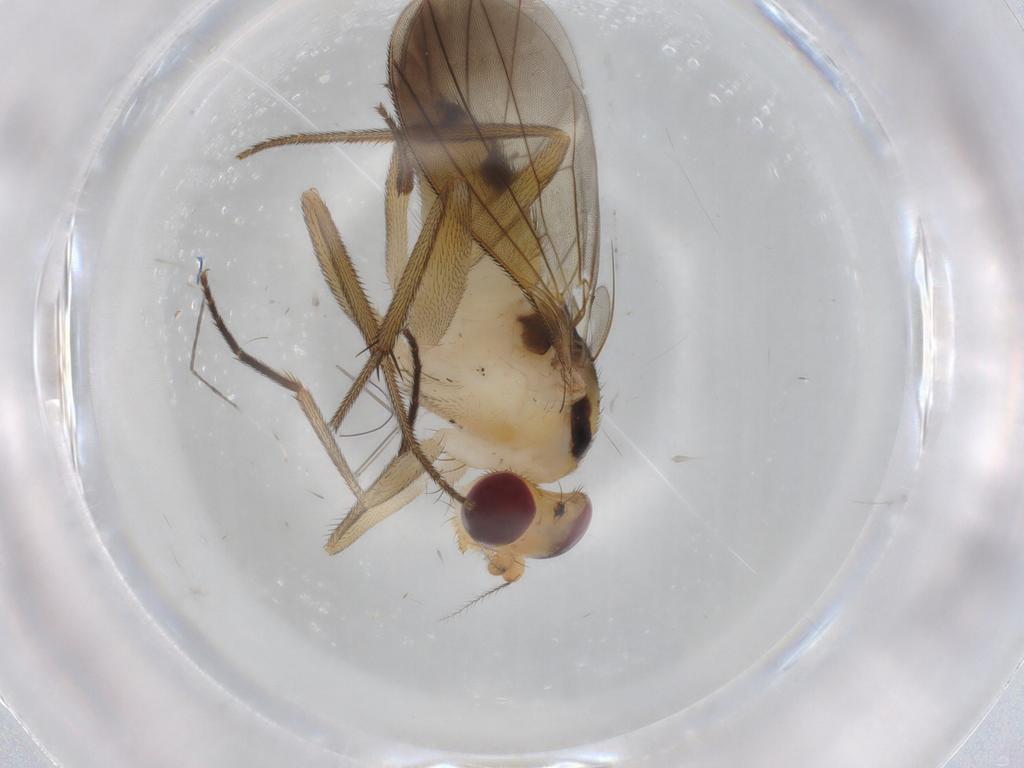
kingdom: Animalia
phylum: Arthropoda
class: Insecta
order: Diptera
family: Clusiidae
